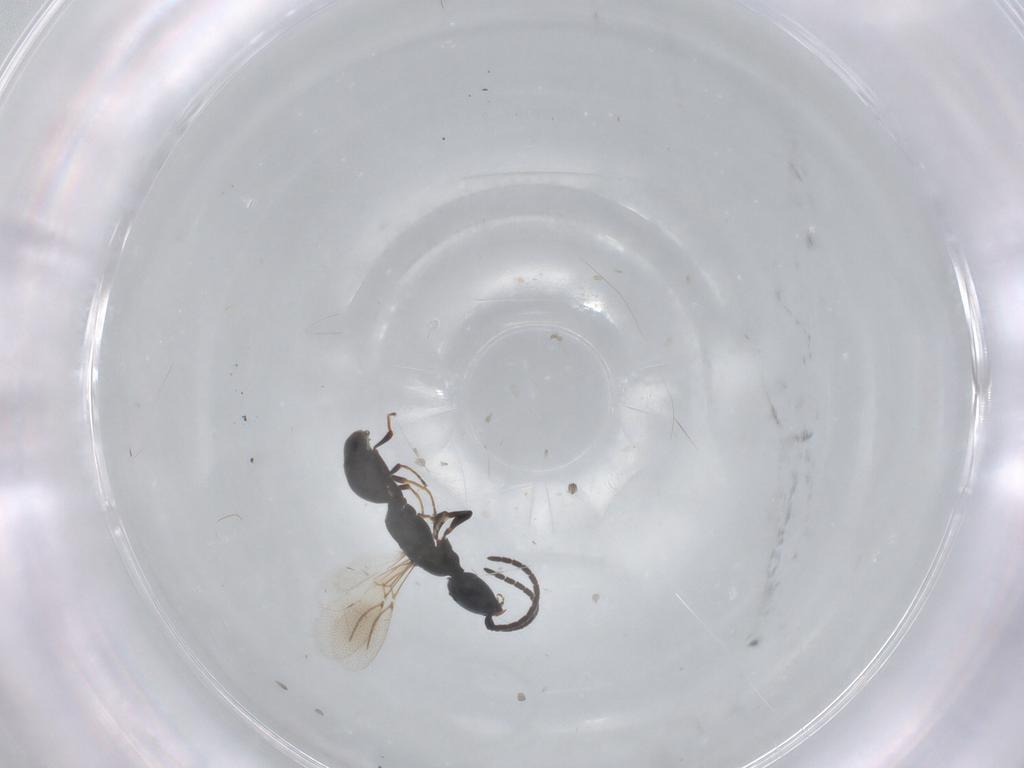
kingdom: Animalia
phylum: Arthropoda
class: Insecta
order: Hymenoptera
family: Bethylidae
